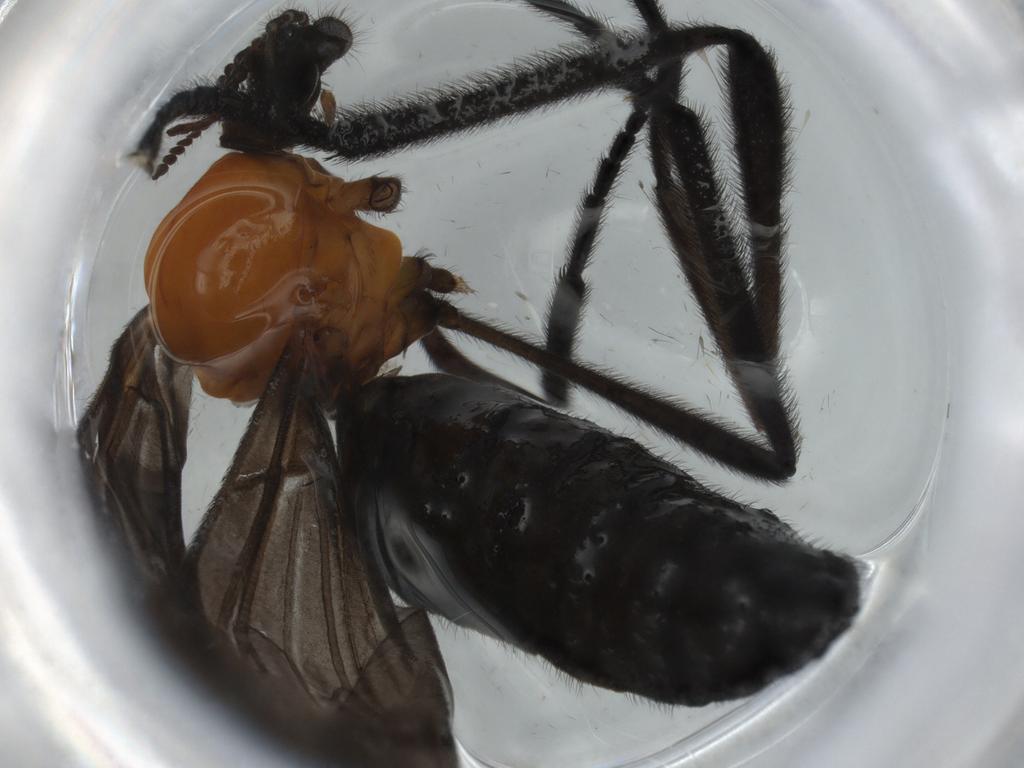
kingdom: Animalia
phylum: Arthropoda
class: Insecta
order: Diptera
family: Bibionidae
